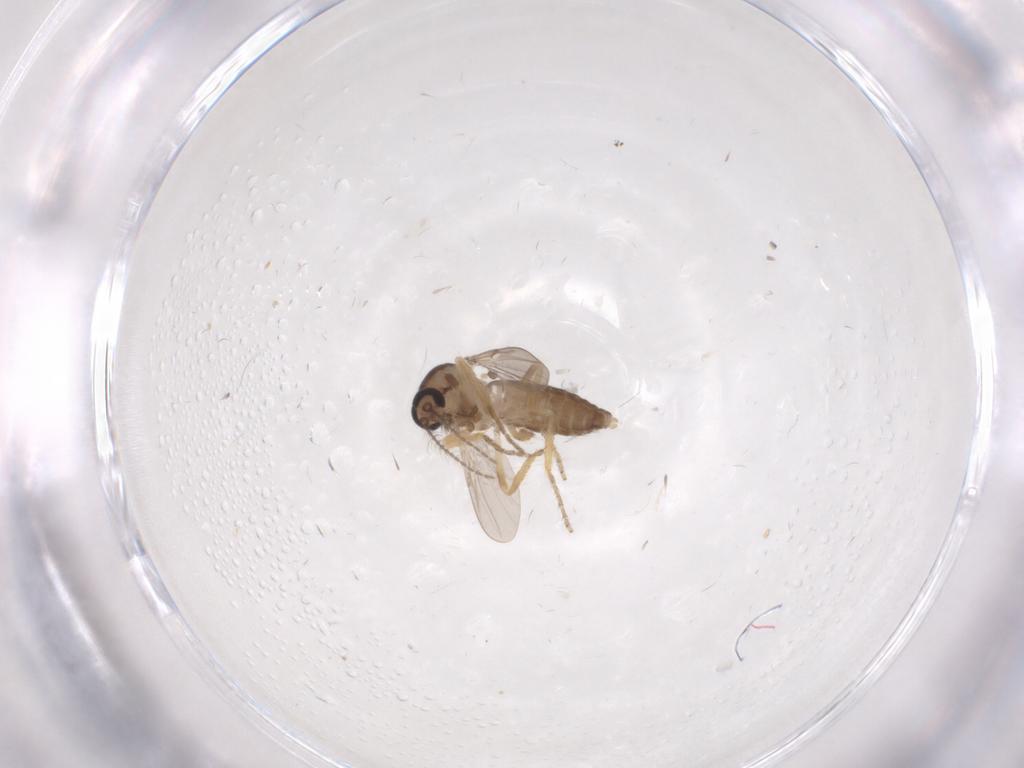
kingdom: Animalia
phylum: Arthropoda
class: Insecta
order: Diptera
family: Ceratopogonidae
